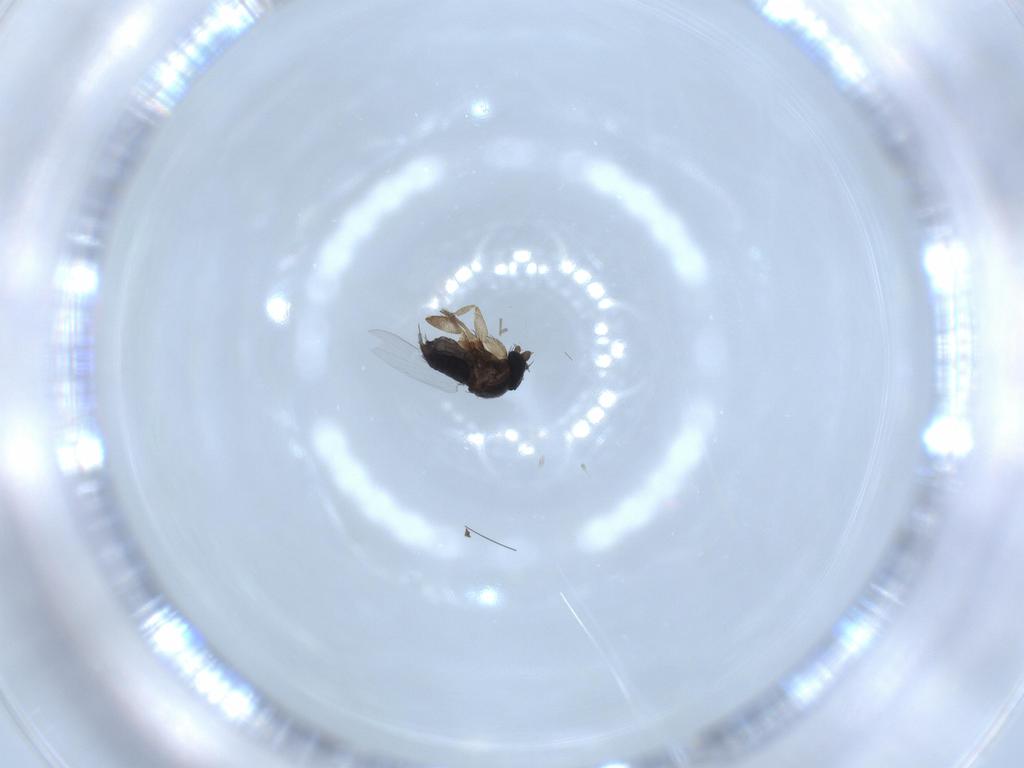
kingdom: Animalia
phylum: Arthropoda
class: Insecta
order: Diptera
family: Phoridae
